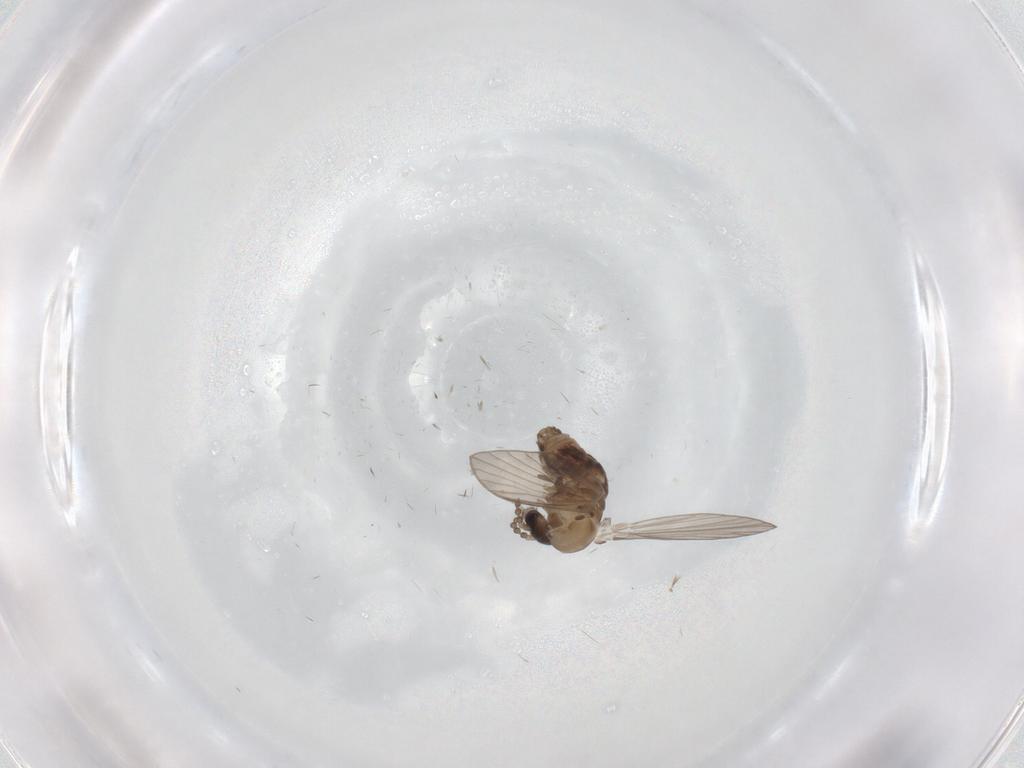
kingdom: Animalia
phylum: Arthropoda
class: Insecta
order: Diptera
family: Psychodidae
